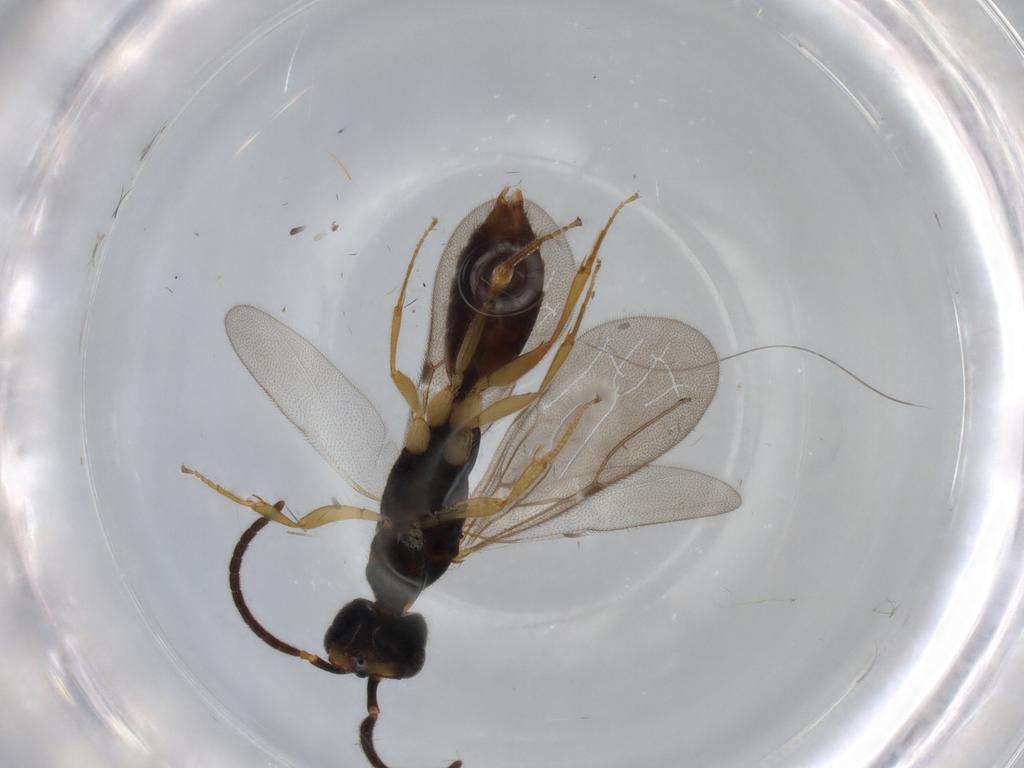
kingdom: Animalia
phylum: Arthropoda
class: Insecta
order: Hymenoptera
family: Bethylidae
